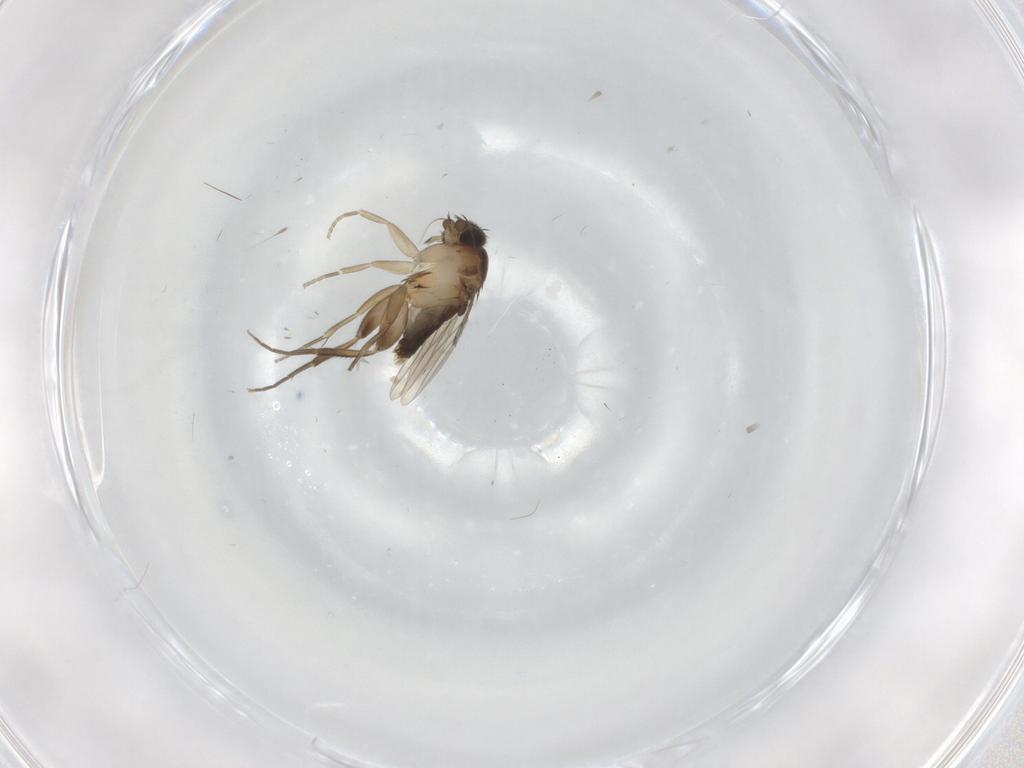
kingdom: Animalia
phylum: Arthropoda
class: Insecta
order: Diptera
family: Phoridae
